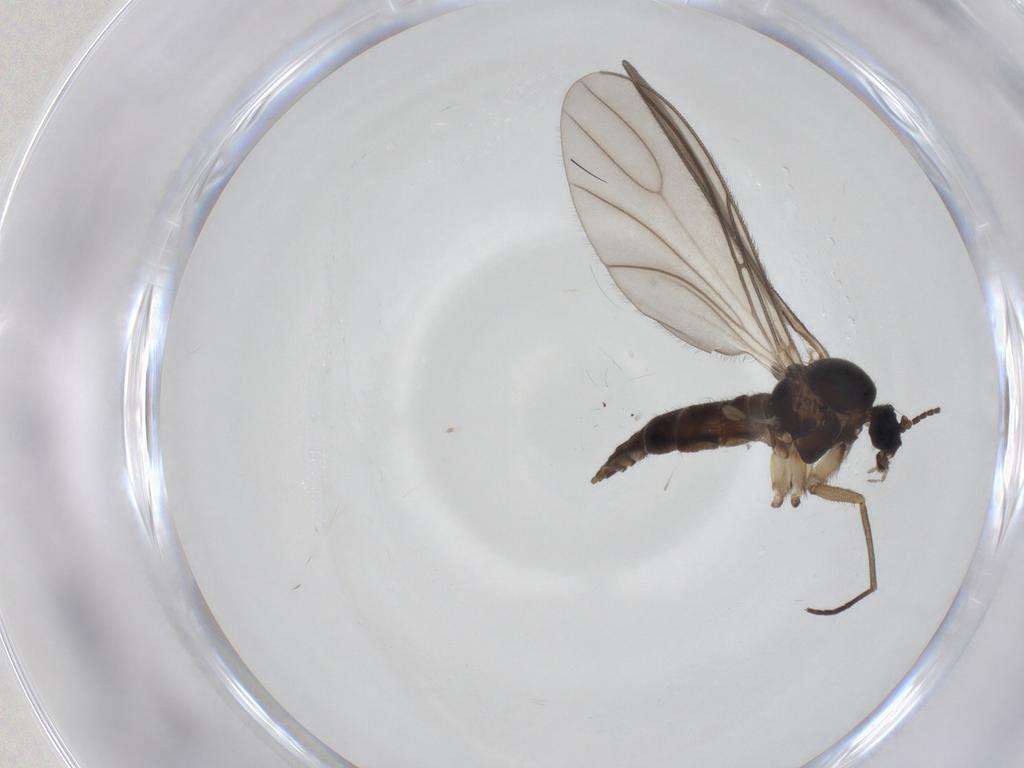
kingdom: Animalia
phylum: Arthropoda
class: Insecta
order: Diptera
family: Sciaridae
